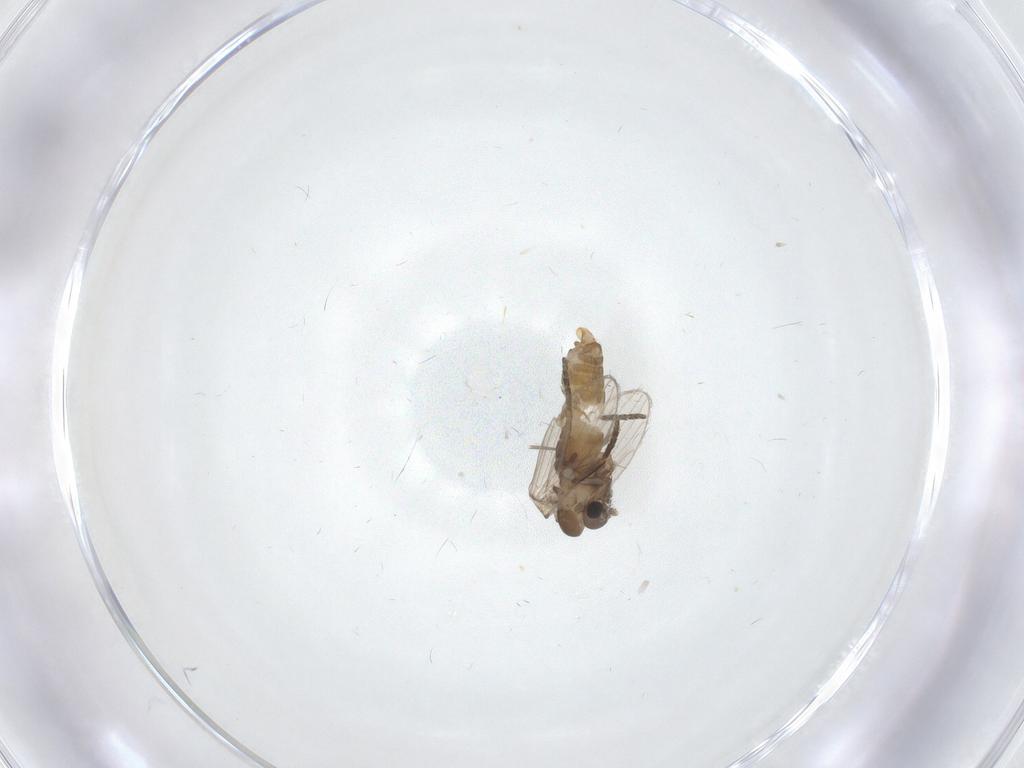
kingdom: Animalia
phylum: Arthropoda
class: Insecta
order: Diptera
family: Ceratopogonidae
